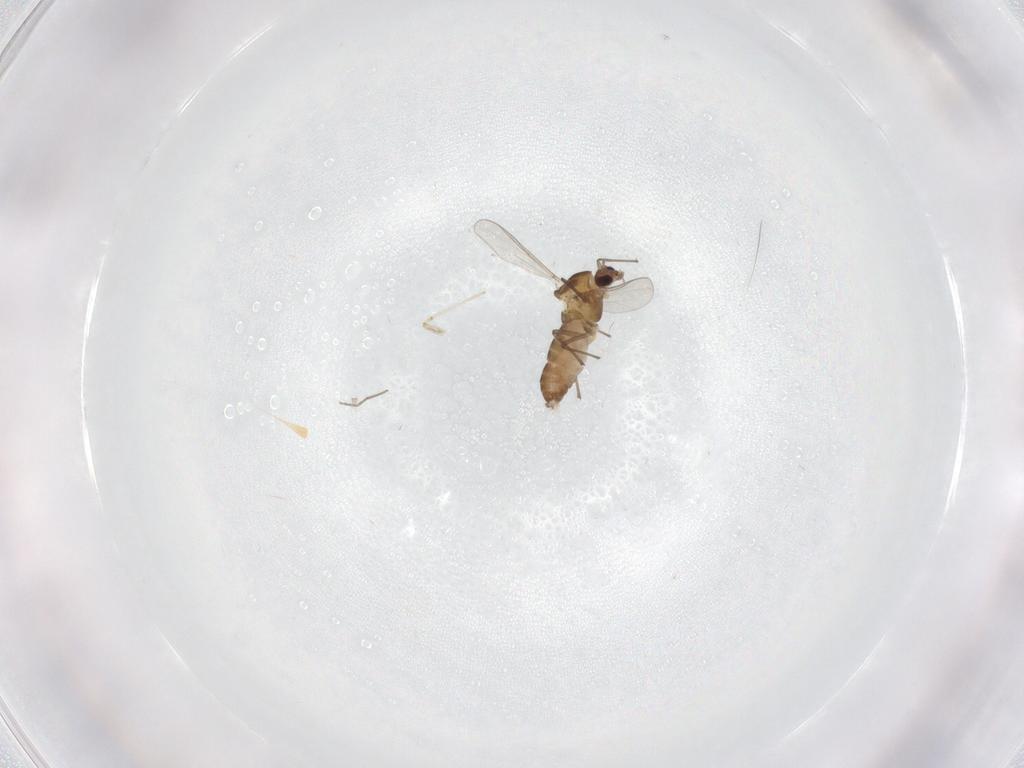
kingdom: Animalia
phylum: Arthropoda
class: Insecta
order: Diptera
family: Chironomidae
